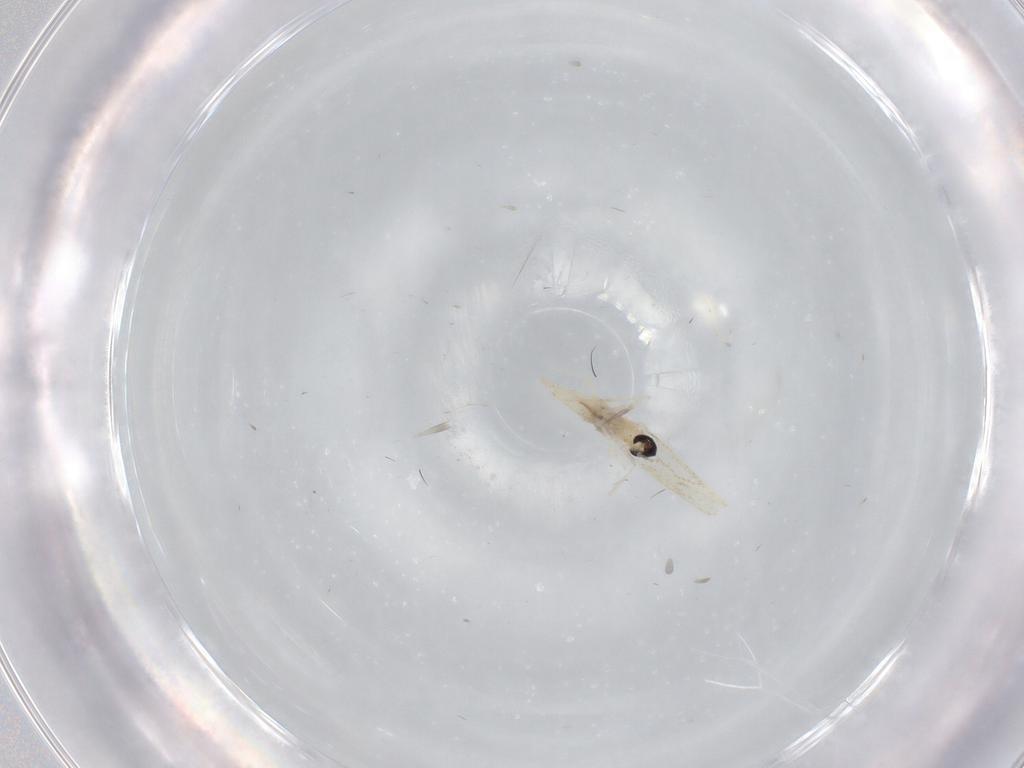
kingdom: Animalia
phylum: Arthropoda
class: Insecta
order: Diptera
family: Cecidomyiidae
